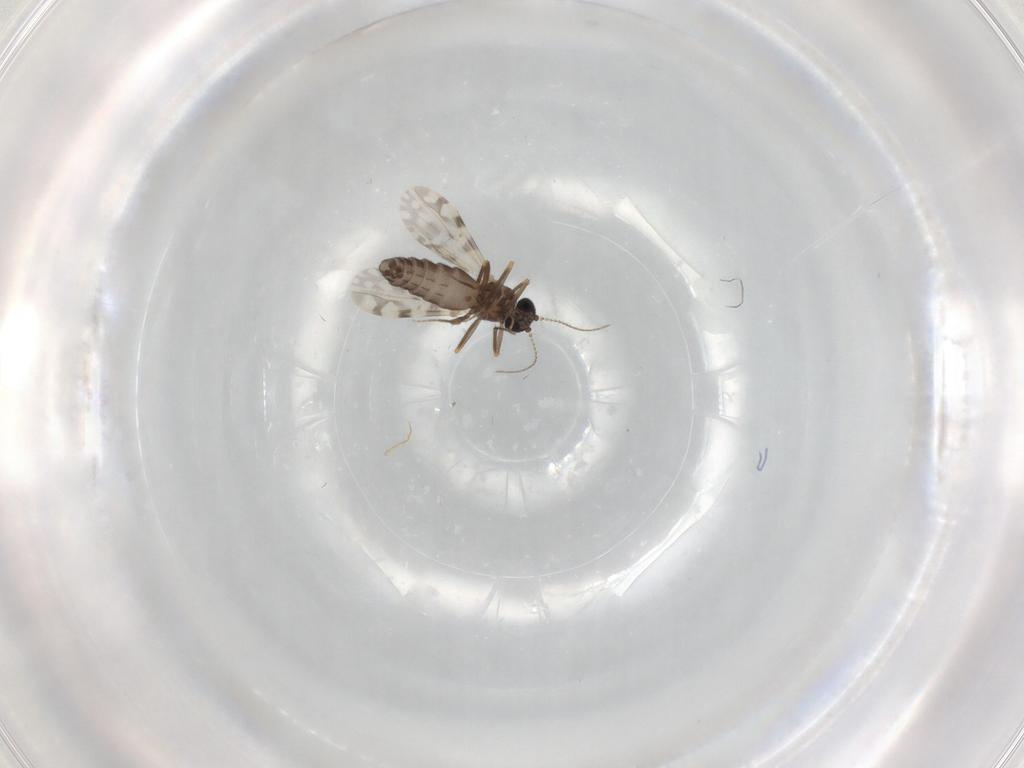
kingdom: Animalia
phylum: Arthropoda
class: Insecta
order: Diptera
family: Ceratopogonidae
